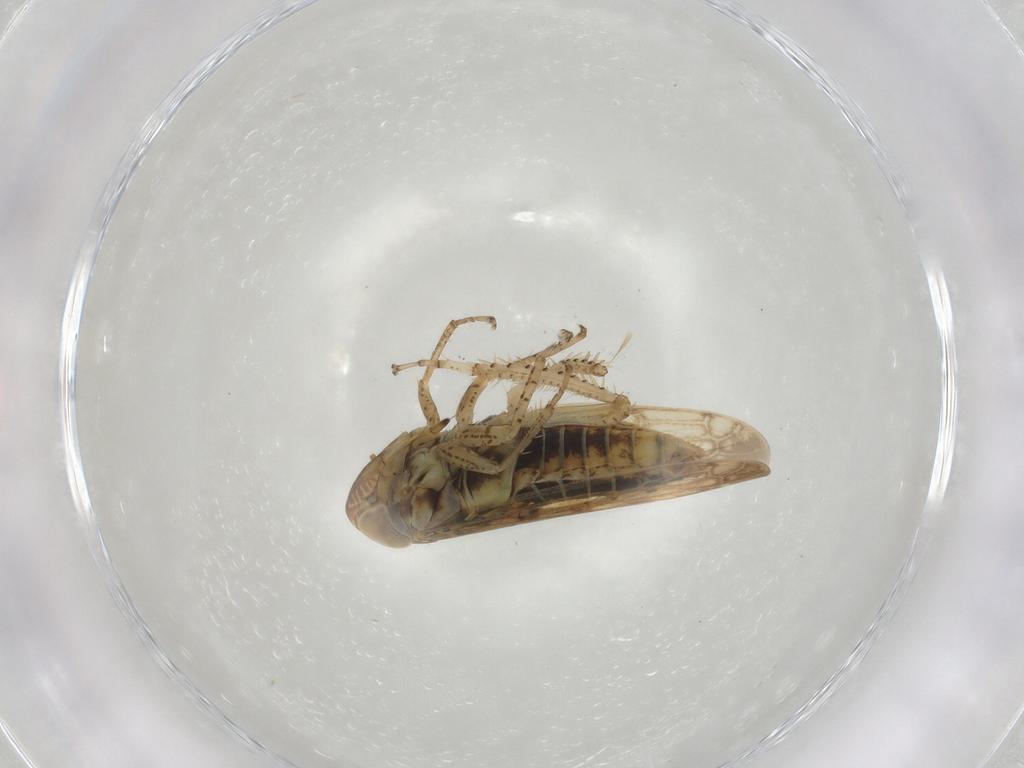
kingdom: Animalia
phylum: Arthropoda
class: Insecta
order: Hemiptera
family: Cicadellidae
